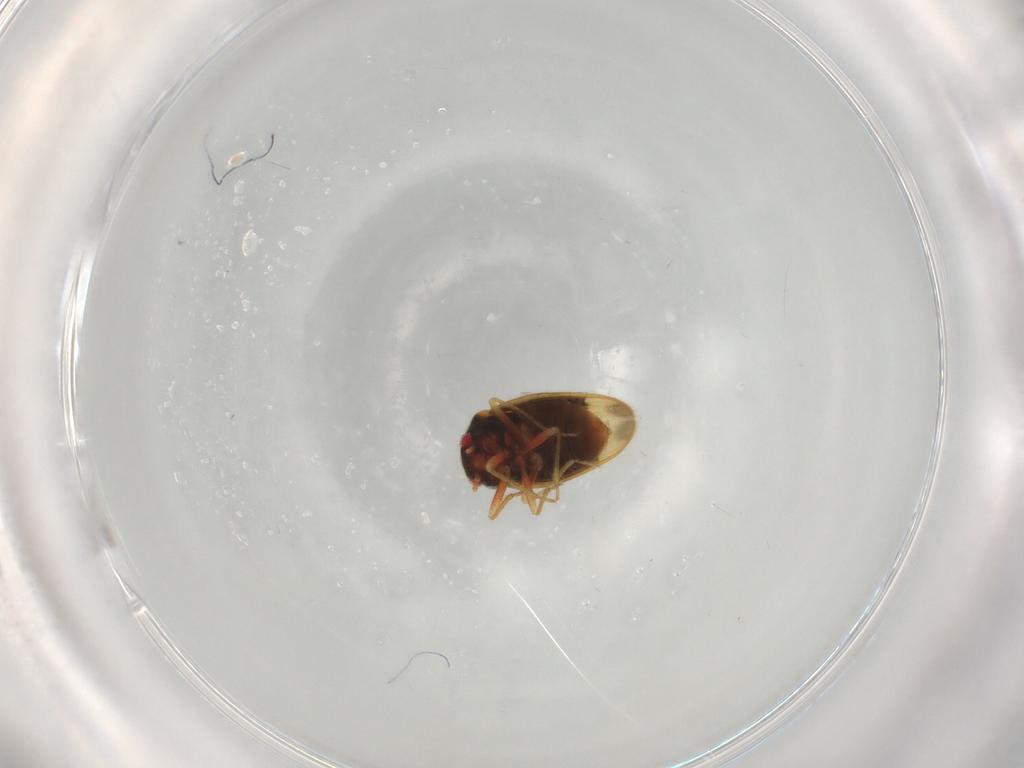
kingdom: Animalia
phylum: Arthropoda
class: Insecta
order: Hemiptera
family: Schizopteridae
